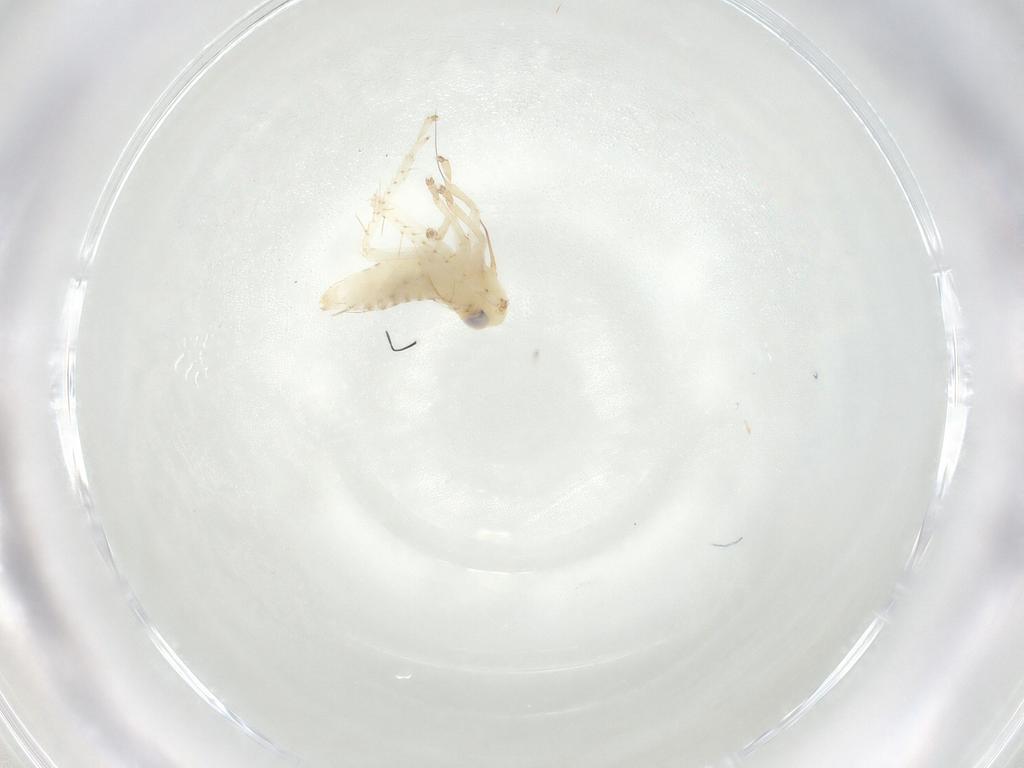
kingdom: Animalia
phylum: Arthropoda
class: Insecta
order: Hemiptera
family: Cicadellidae
